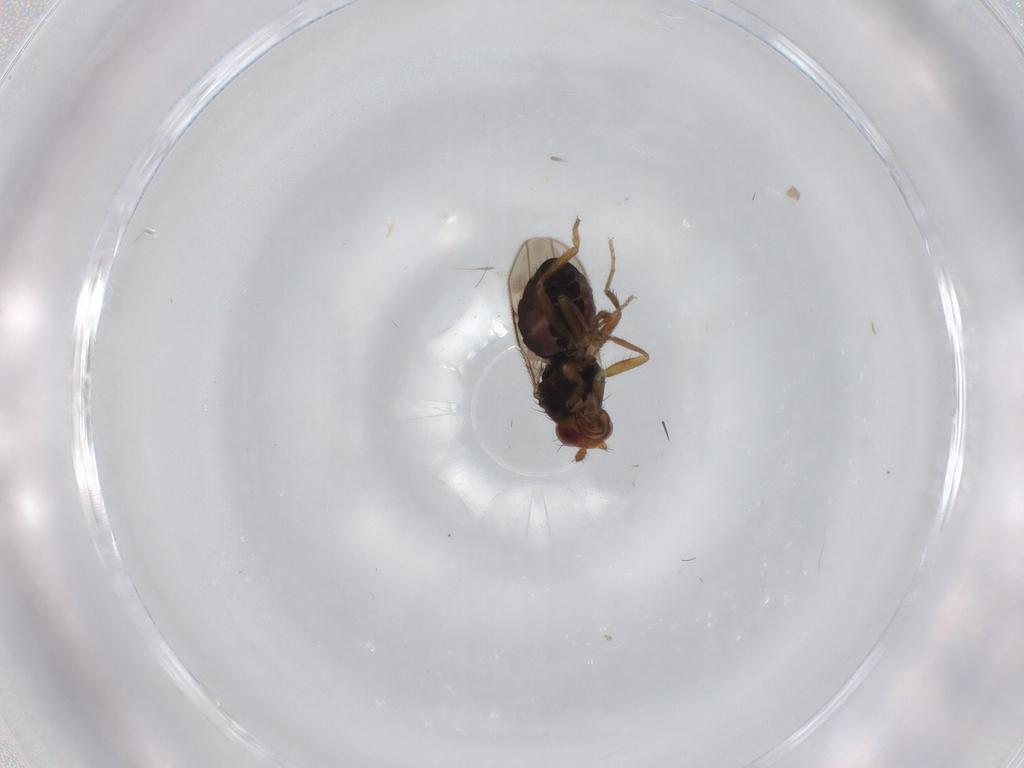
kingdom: Animalia
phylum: Arthropoda
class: Insecta
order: Diptera
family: Sphaeroceridae
